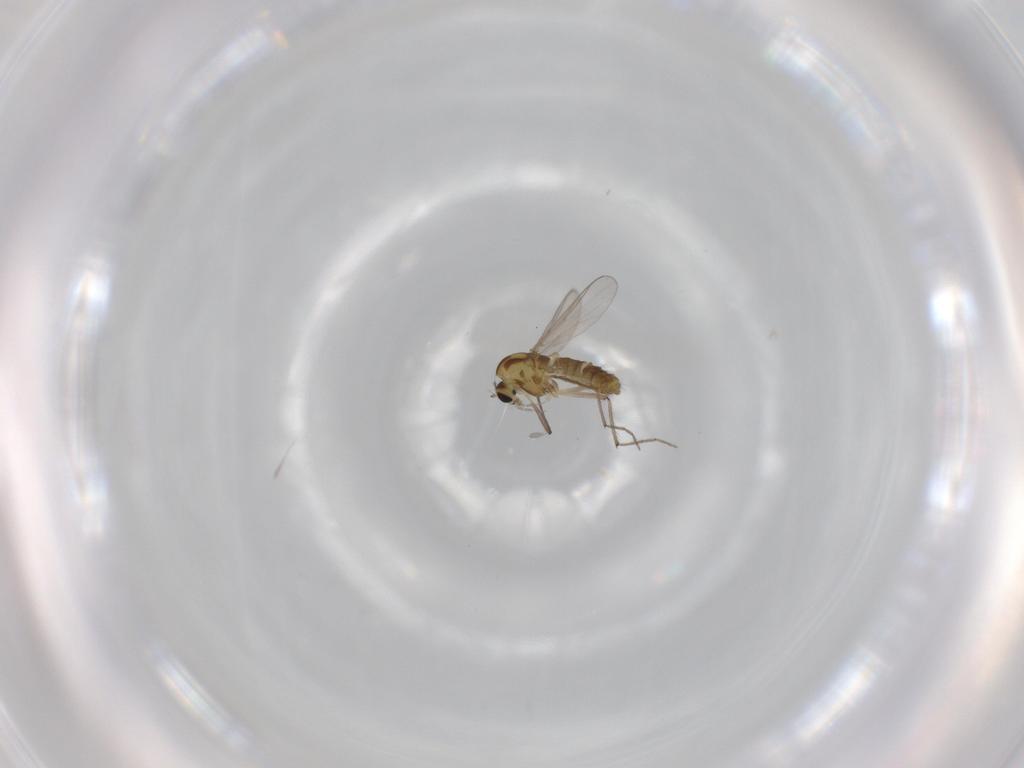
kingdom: Animalia
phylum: Arthropoda
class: Insecta
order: Diptera
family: Chironomidae
